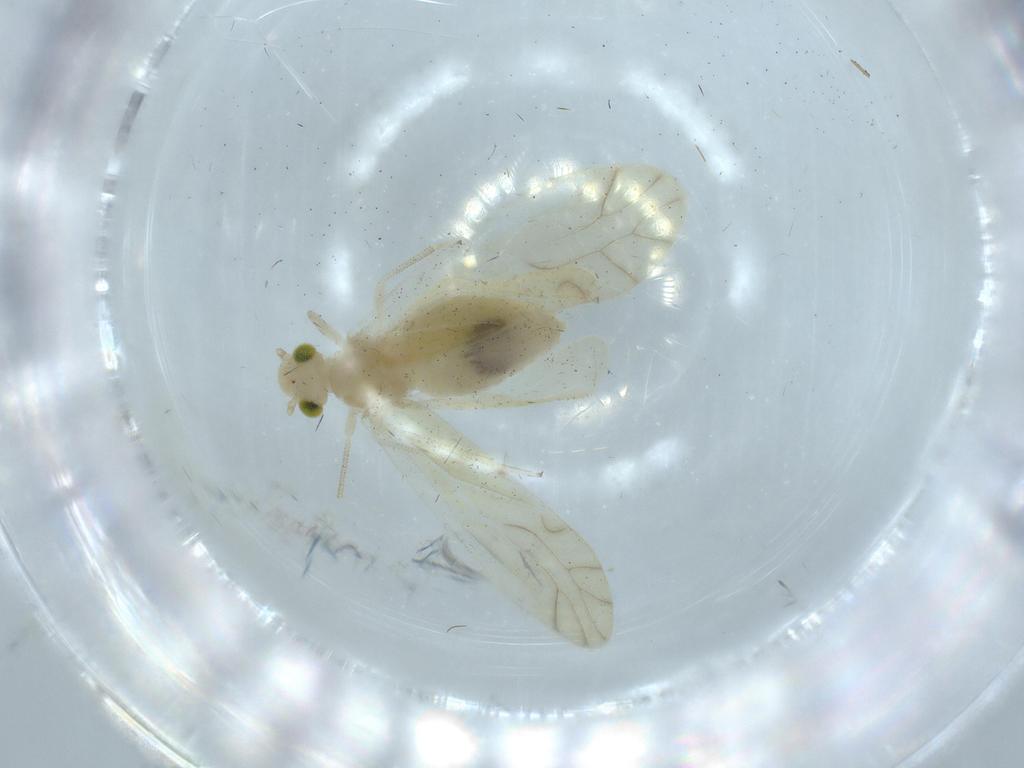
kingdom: Animalia
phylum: Arthropoda
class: Insecta
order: Psocodea
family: Caeciliusidae
